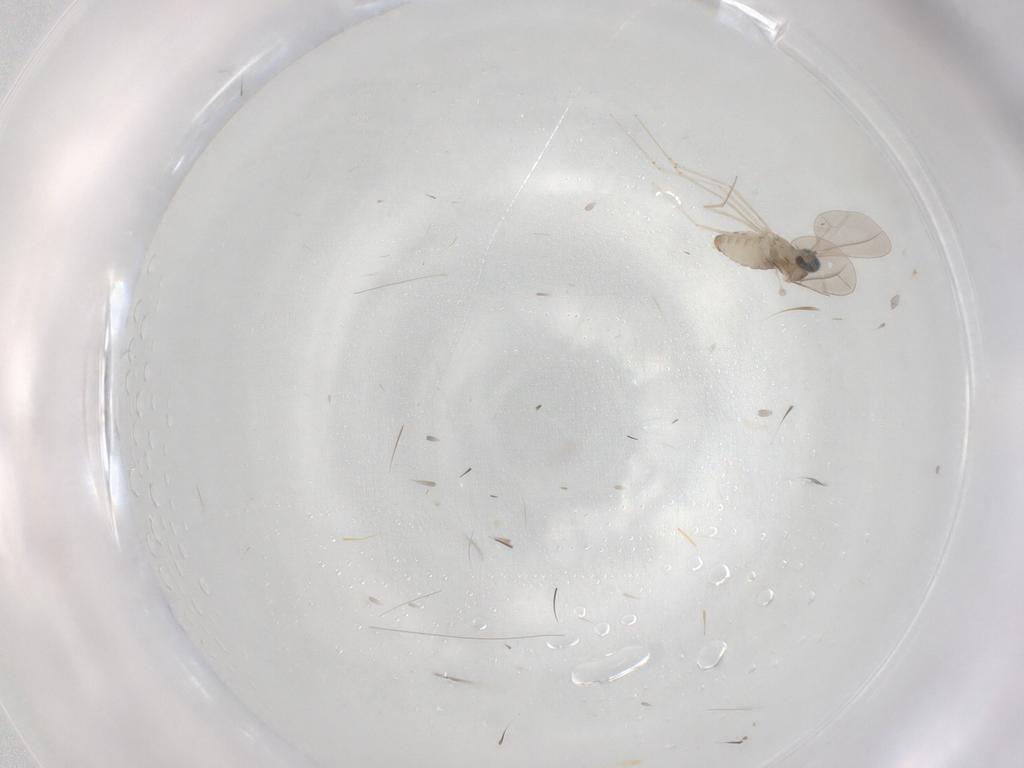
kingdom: Animalia
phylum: Arthropoda
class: Insecta
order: Diptera
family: Cecidomyiidae
